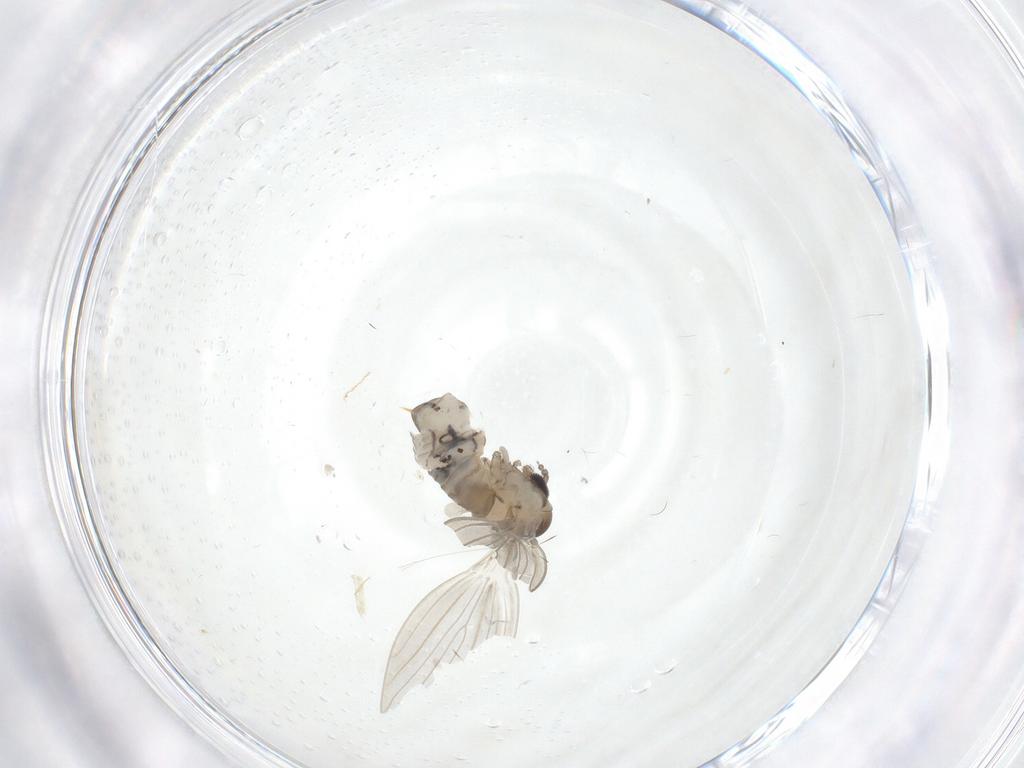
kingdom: Animalia
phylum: Arthropoda
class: Insecta
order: Diptera
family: Psychodidae
